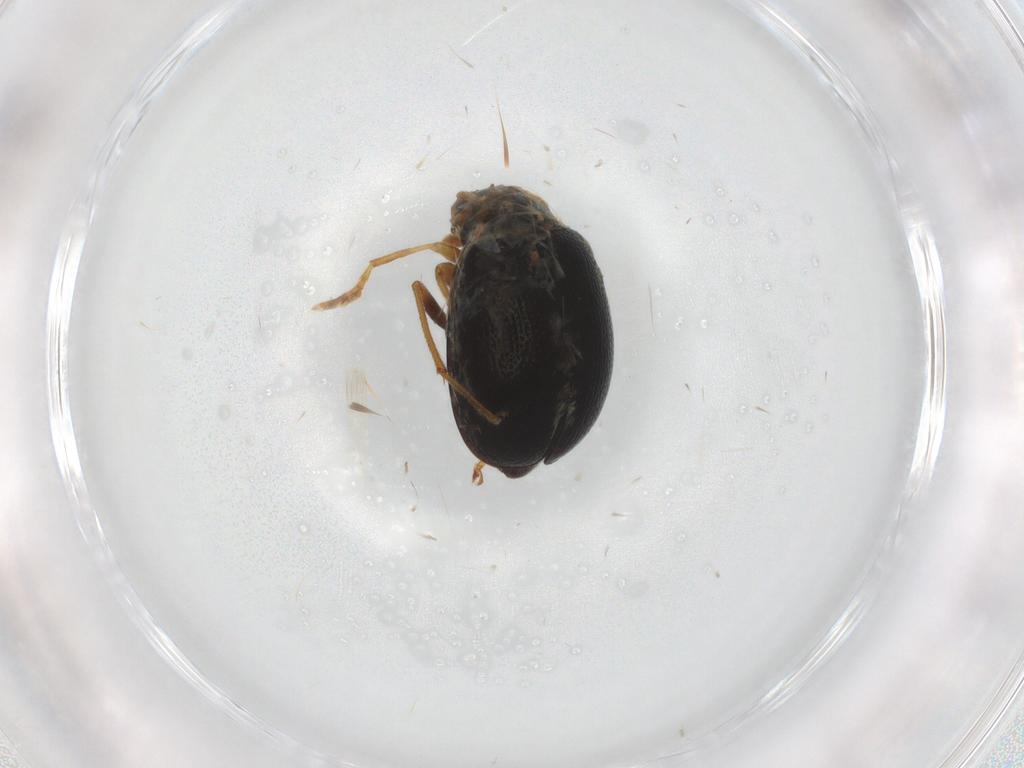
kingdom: Animalia
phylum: Arthropoda
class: Insecta
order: Coleoptera
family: Chrysomelidae
